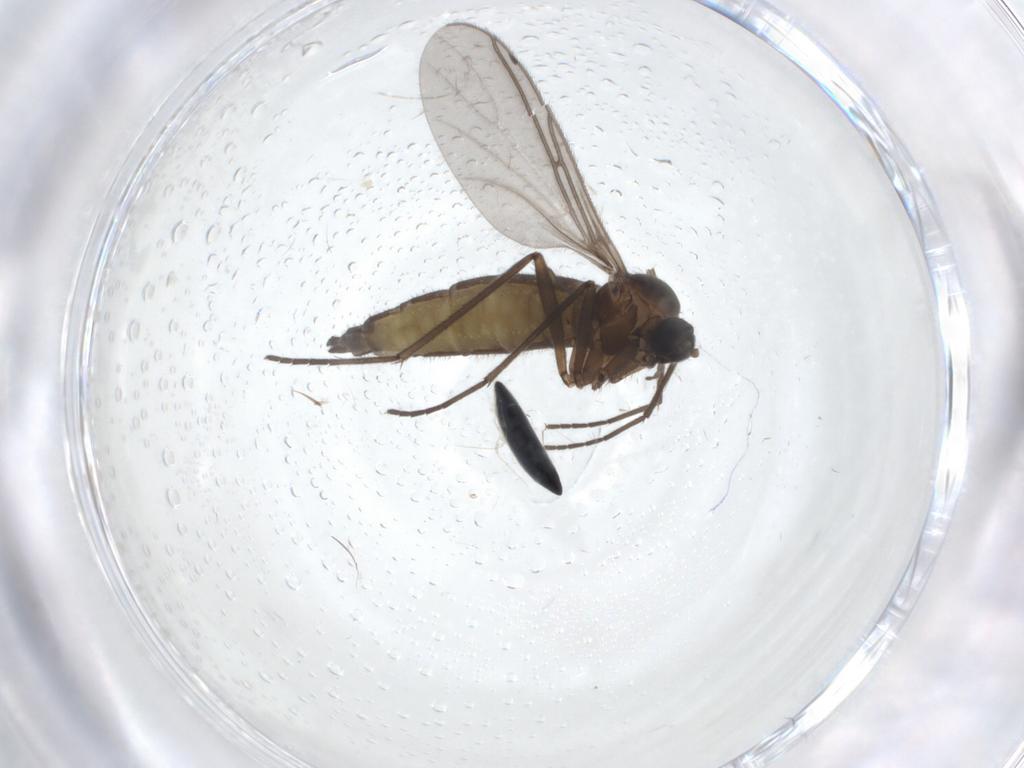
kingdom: Animalia
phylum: Arthropoda
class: Insecta
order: Diptera
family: Sciaridae
